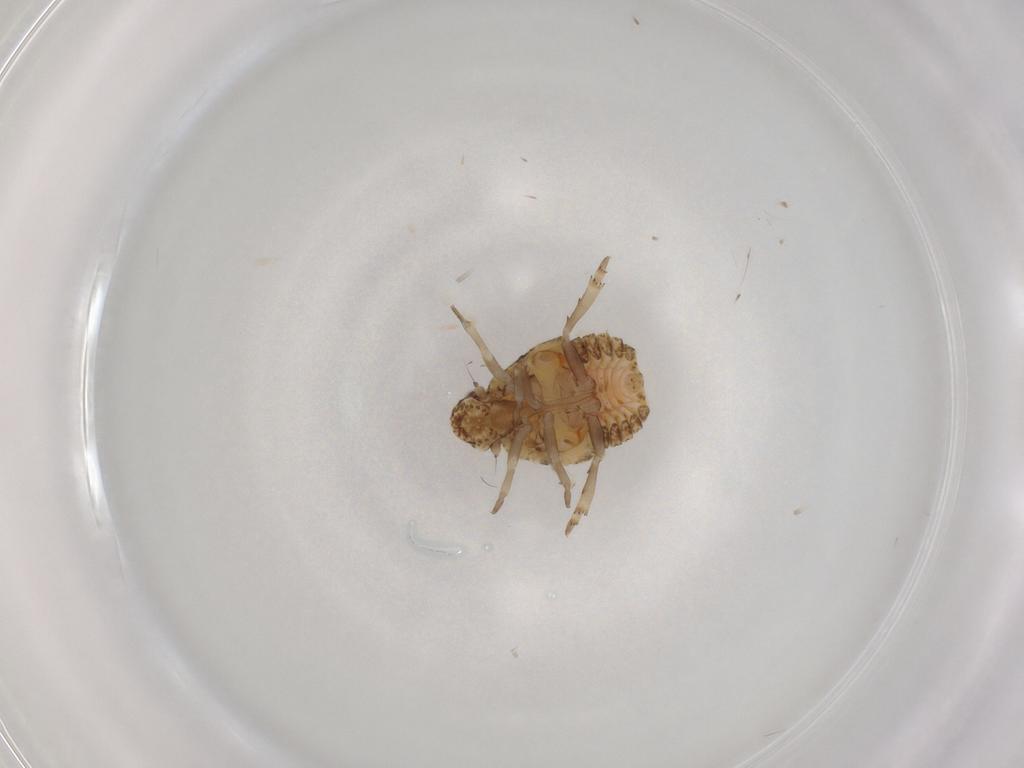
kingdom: Animalia
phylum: Arthropoda
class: Insecta
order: Hemiptera
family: Flatidae
